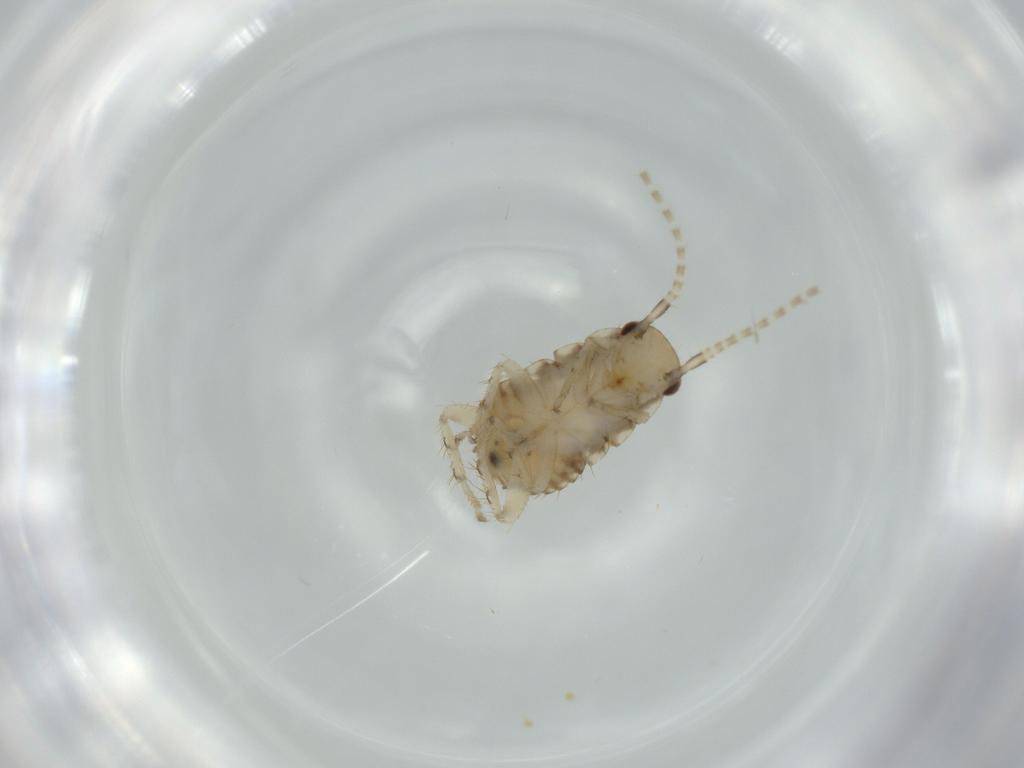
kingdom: Animalia
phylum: Arthropoda
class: Insecta
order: Blattodea
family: Ectobiidae
